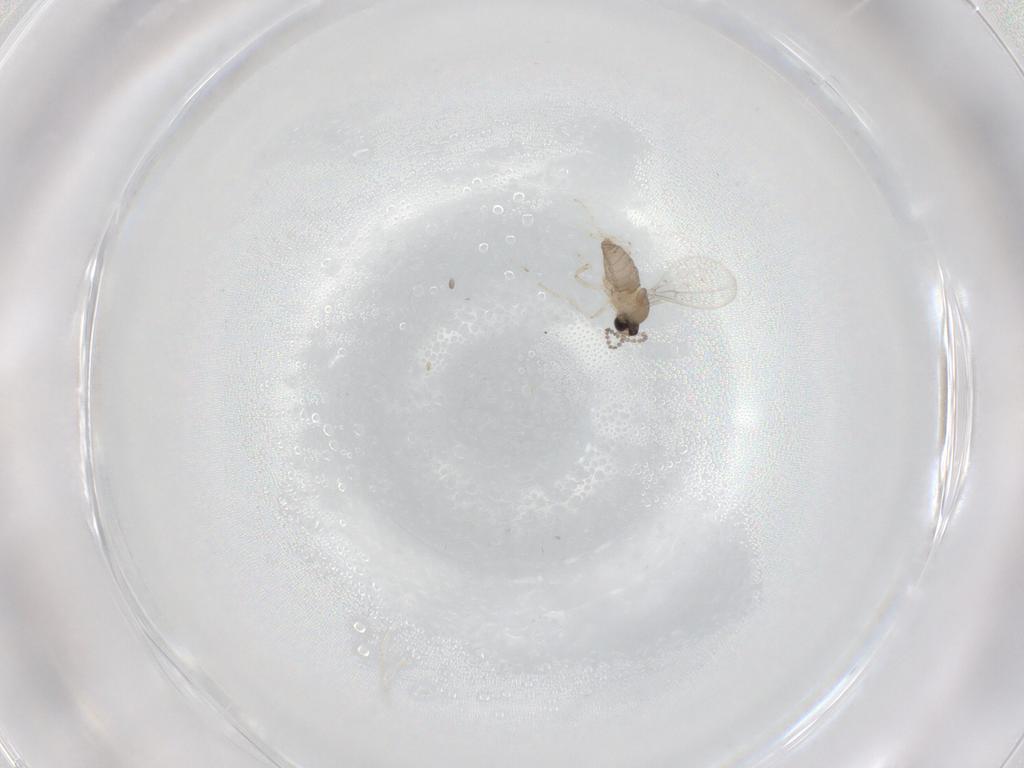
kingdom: Animalia
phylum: Arthropoda
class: Insecta
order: Diptera
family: Cecidomyiidae
